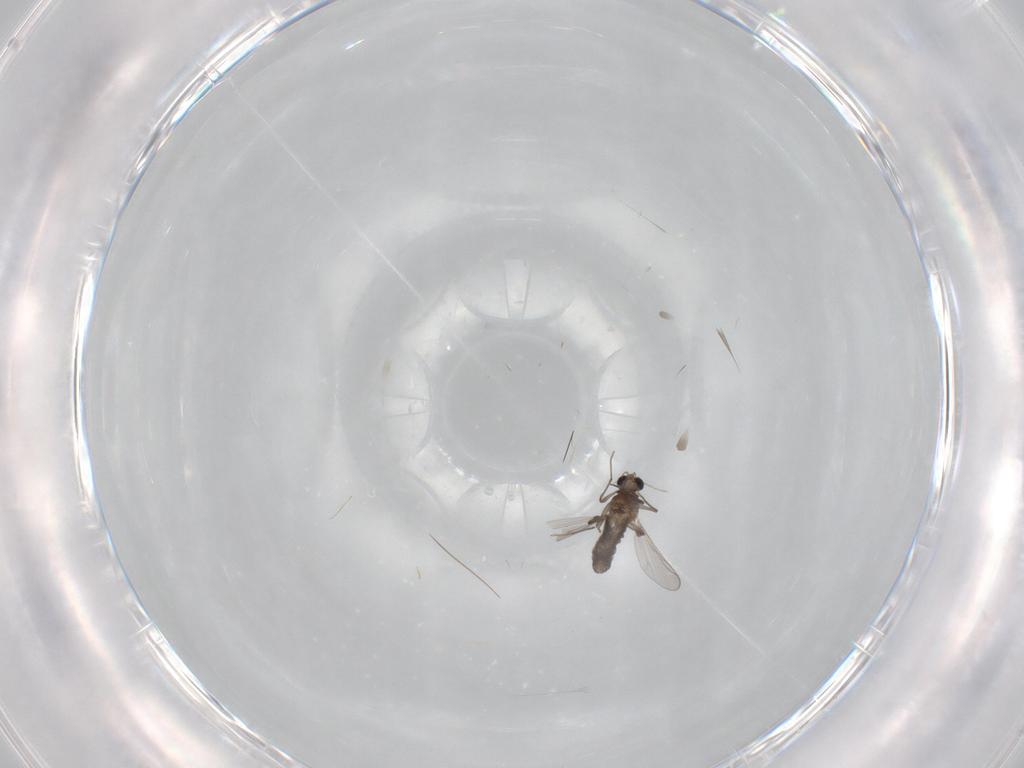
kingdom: Animalia
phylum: Arthropoda
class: Insecta
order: Diptera
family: Chironomidae
